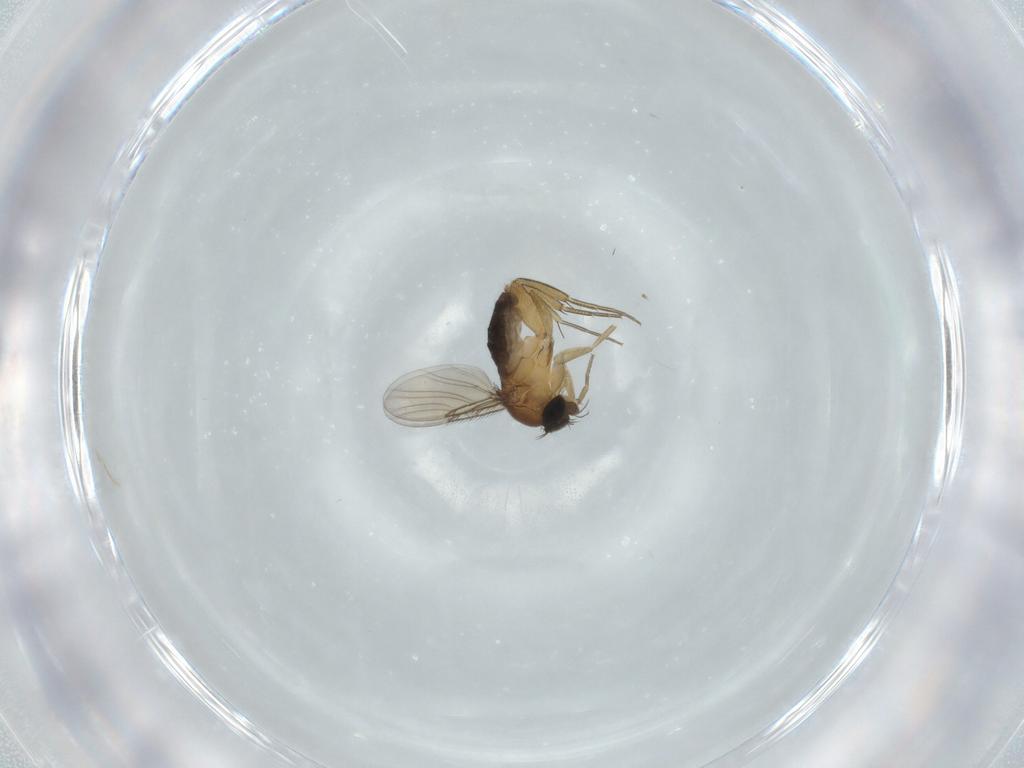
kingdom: Animalia
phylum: Arthropoda
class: Insecta
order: Diptera
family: Phoridae
